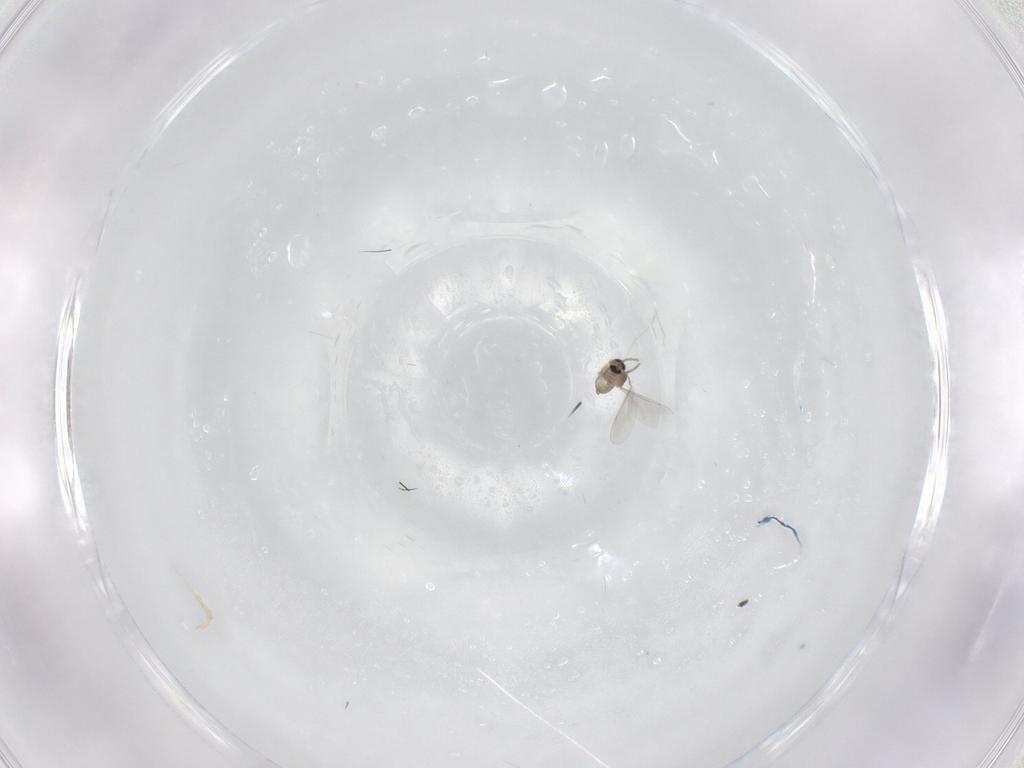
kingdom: Animalia
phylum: Arthropoda
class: Insecta
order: Diptera
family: Cecidomyiidae
